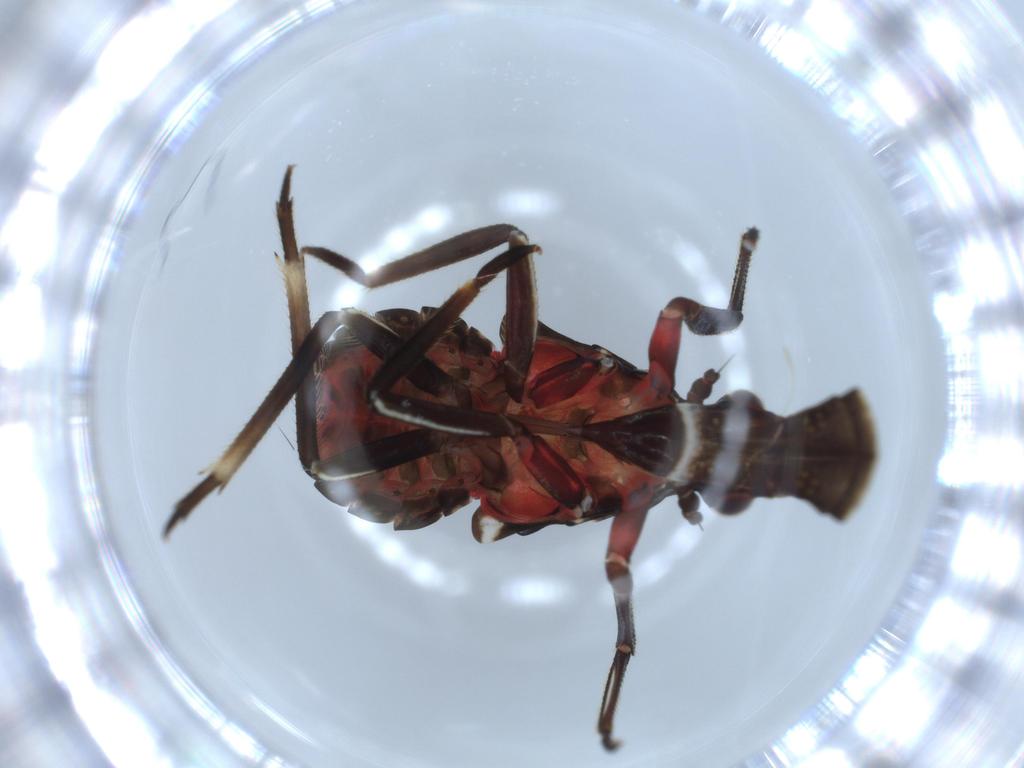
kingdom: Animalia
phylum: Arthropoda
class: Insecta
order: Hemiptera
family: Fulgoridae
